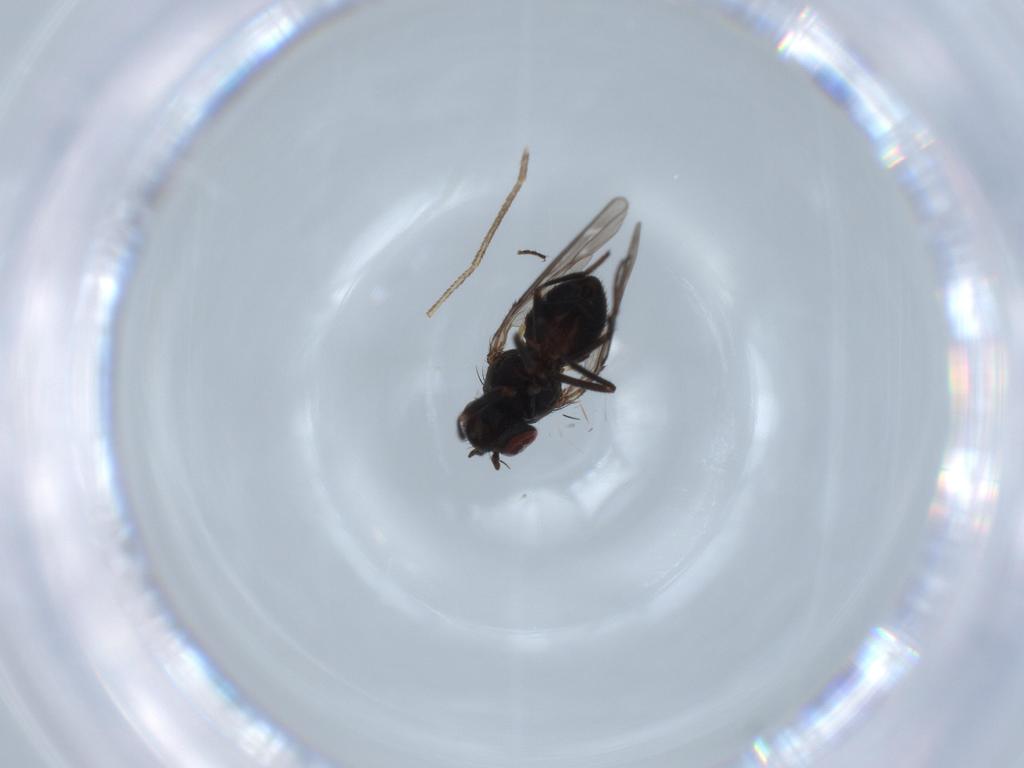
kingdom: Animalia
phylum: Arthropoda
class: Insecta
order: Diptera
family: Ephydridae
